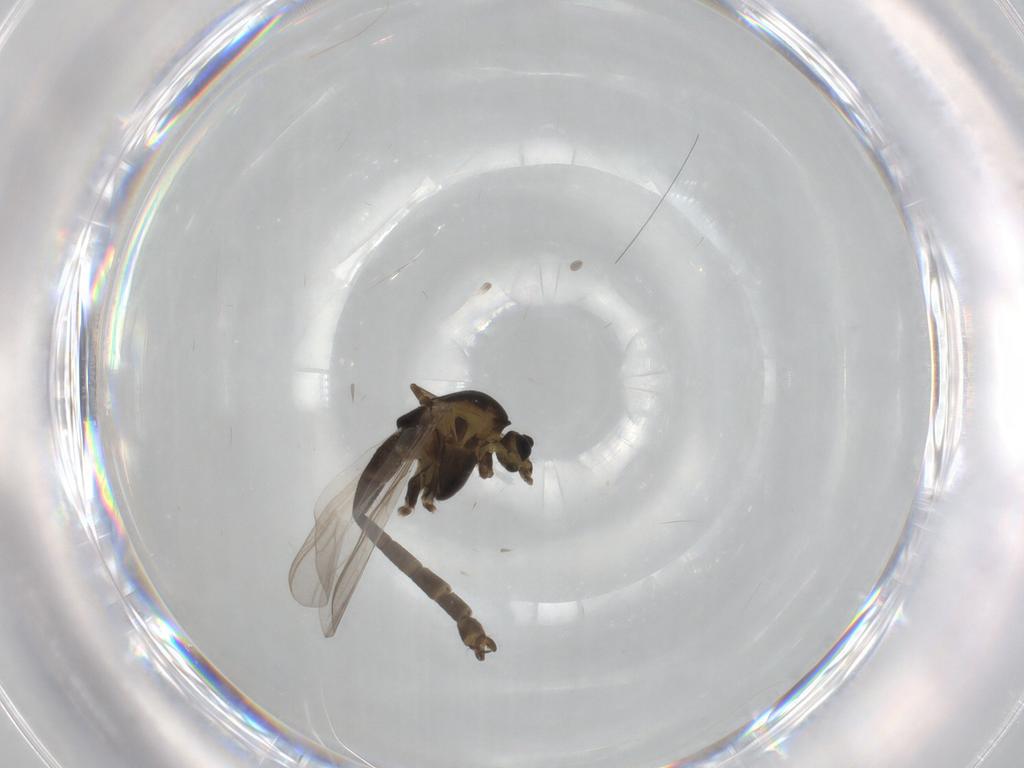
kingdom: Animalia
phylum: Arthropoda
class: Insecta
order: Diptera
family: Chironomidae
